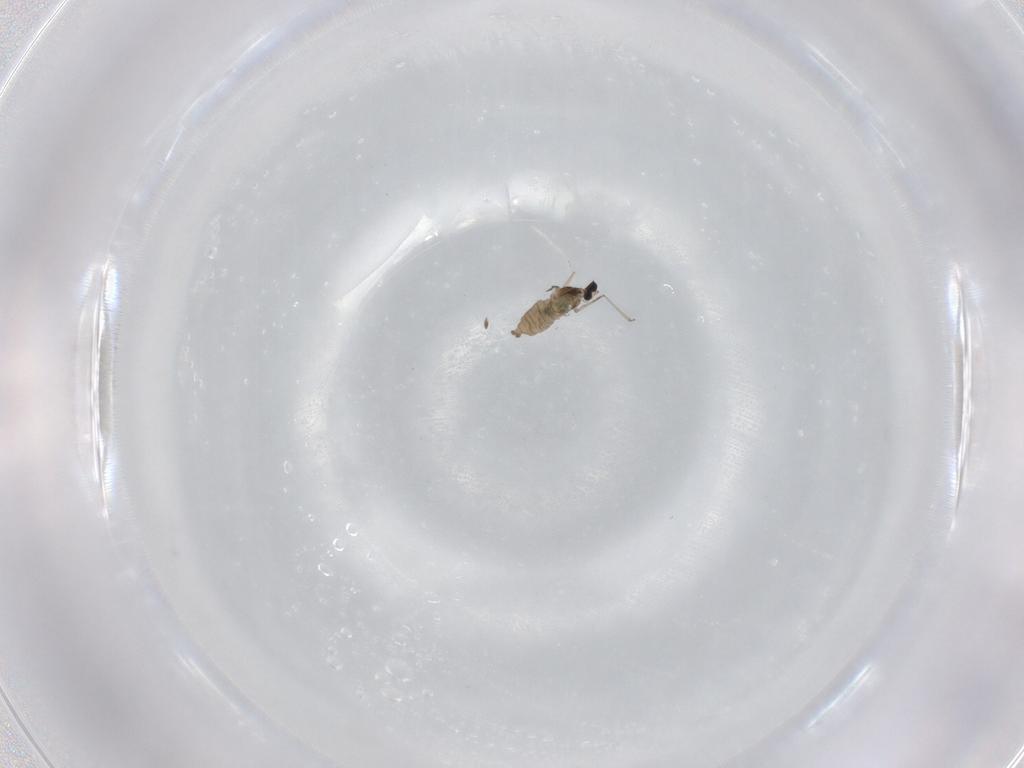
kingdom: Animalia
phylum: Arthropoda
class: Insecta
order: Diptera
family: Cecidomyiidae
